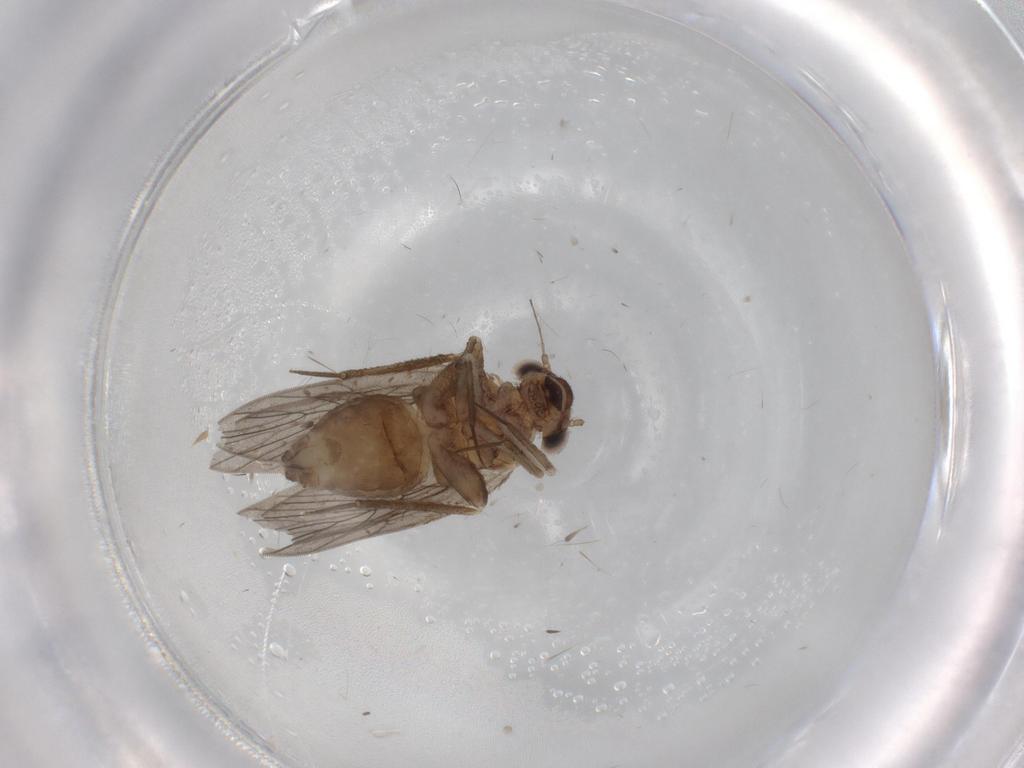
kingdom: Animalia
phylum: Arthropoda
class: Insecta
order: Psocodea
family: Lepidopsocidae
